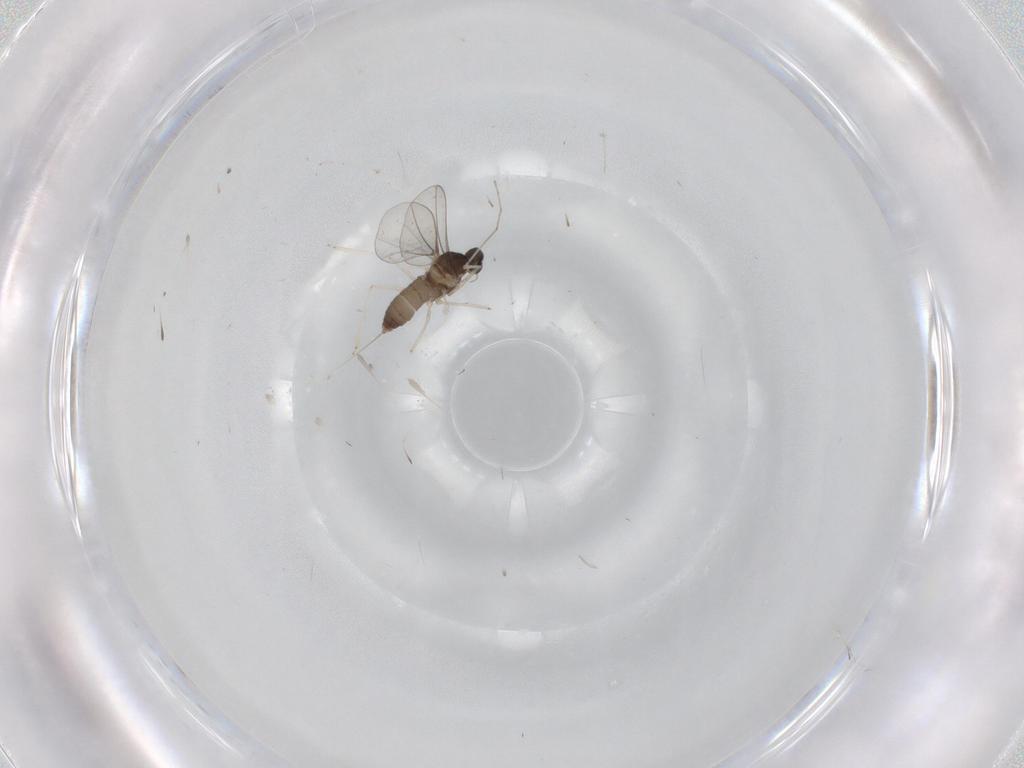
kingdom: Animalia
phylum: Arthropoda
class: Insecta
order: Diptera
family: Cecidomyiidae
